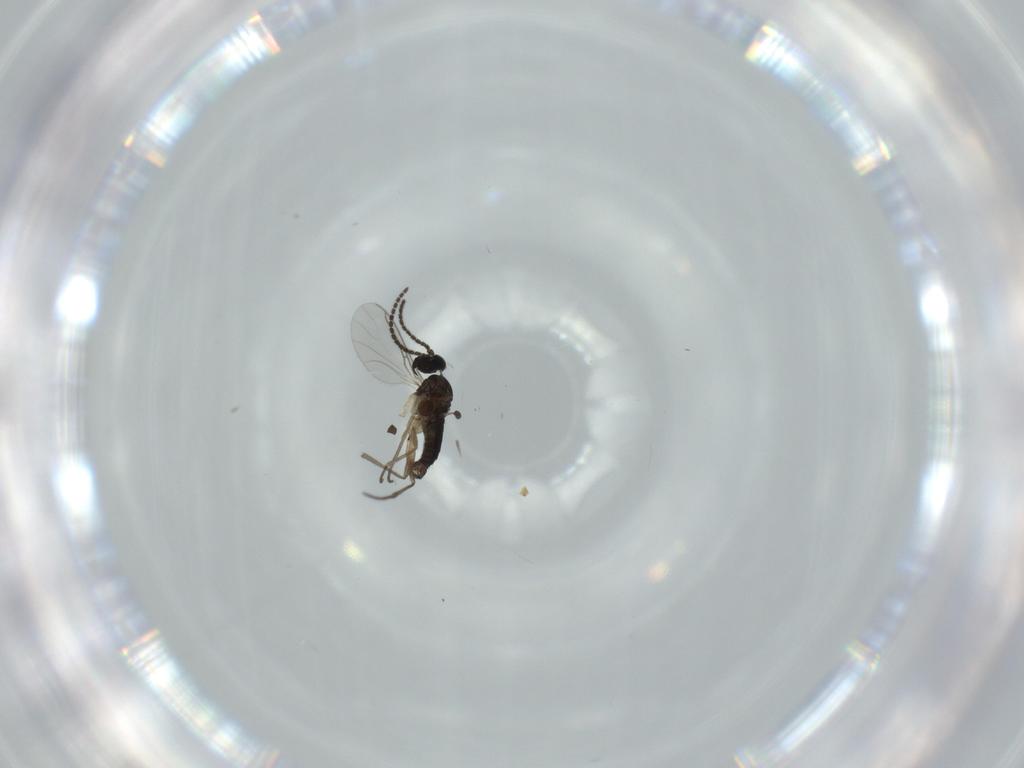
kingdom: Animalia
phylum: Arthropoda
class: Insecta
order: Diptera
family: Sciaridae
